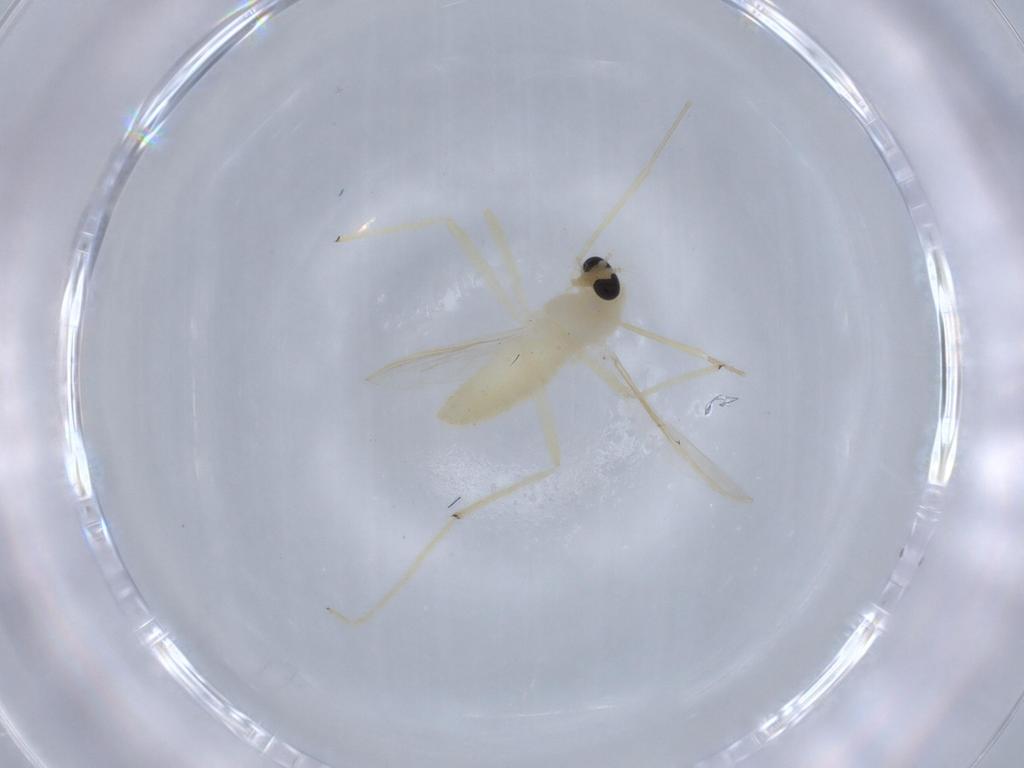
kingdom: Animalia
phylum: Arthropoda
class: Insecta
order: Diptera
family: Chironomidae
